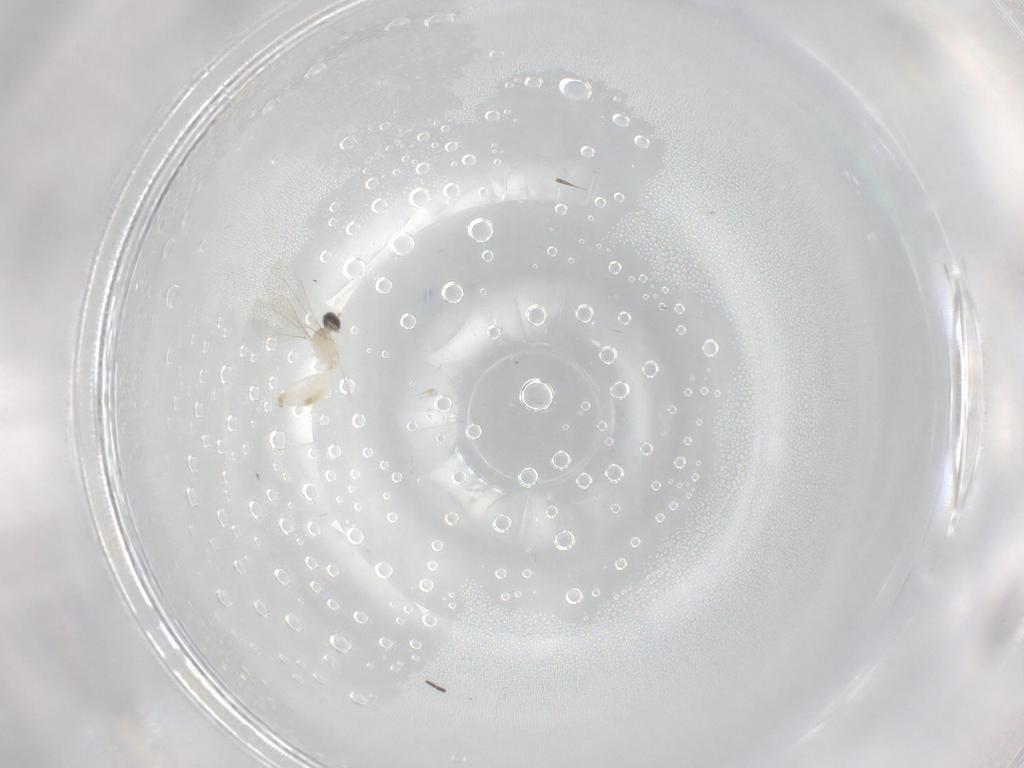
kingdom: Animalia
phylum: Arthropoda
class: Insecta
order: Diptera
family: Cecidomyiidae
